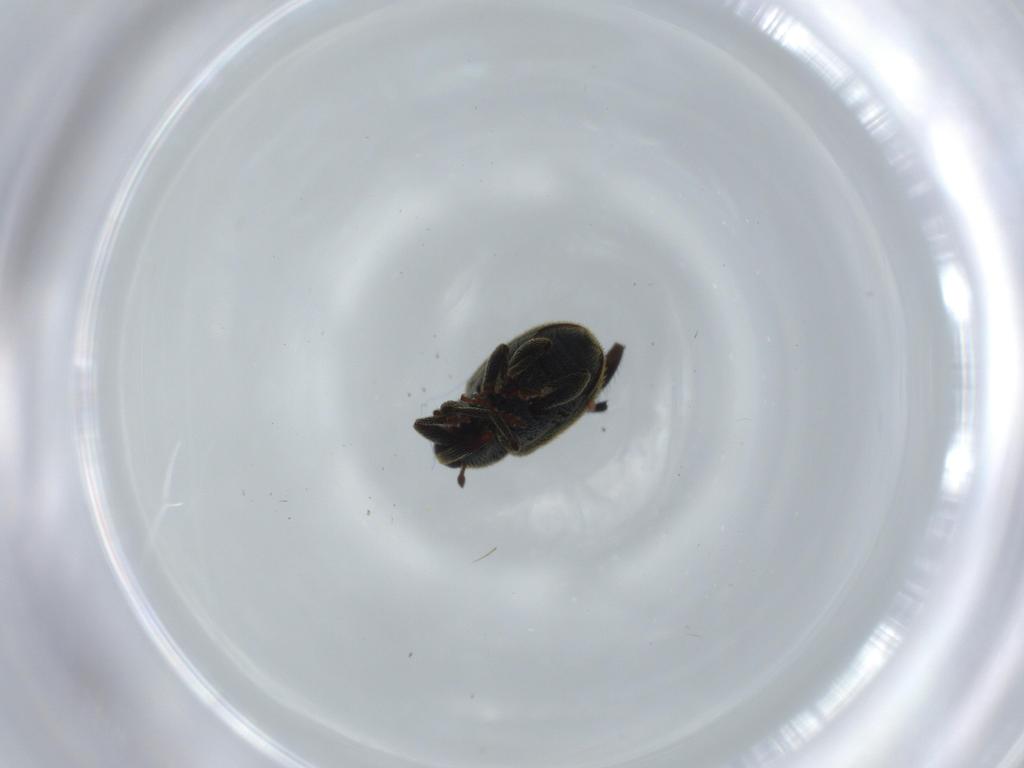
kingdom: Animalia
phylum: Arthropoda
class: Insecta
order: Coleoptera
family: Curculionidae
